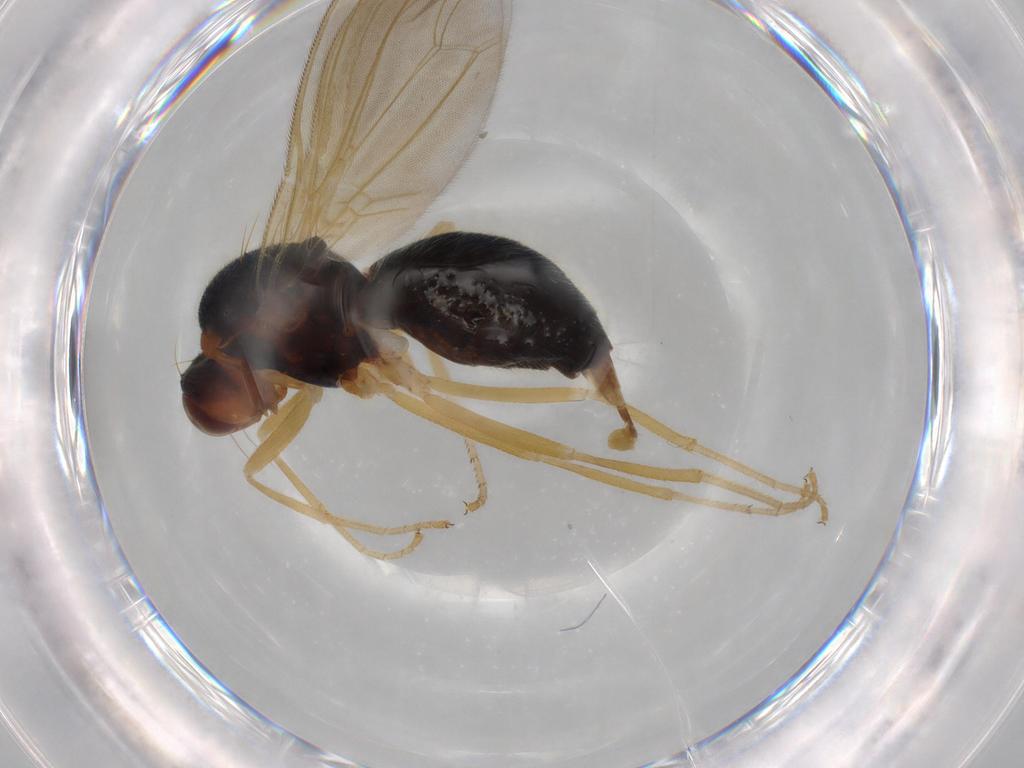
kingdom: Animalia
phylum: Arthropoda
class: Insecta
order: Diptera
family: Psilidae
